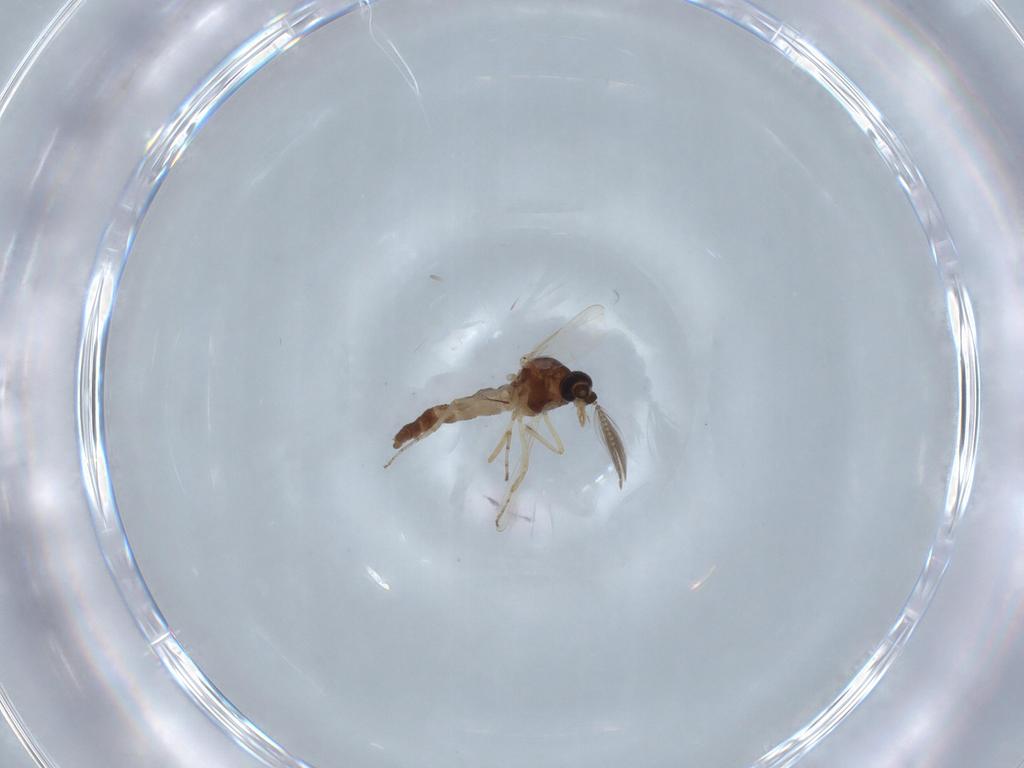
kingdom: Animalia
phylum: Arthropoda
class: Insecta
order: Diptera
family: Ceratopogonidae
